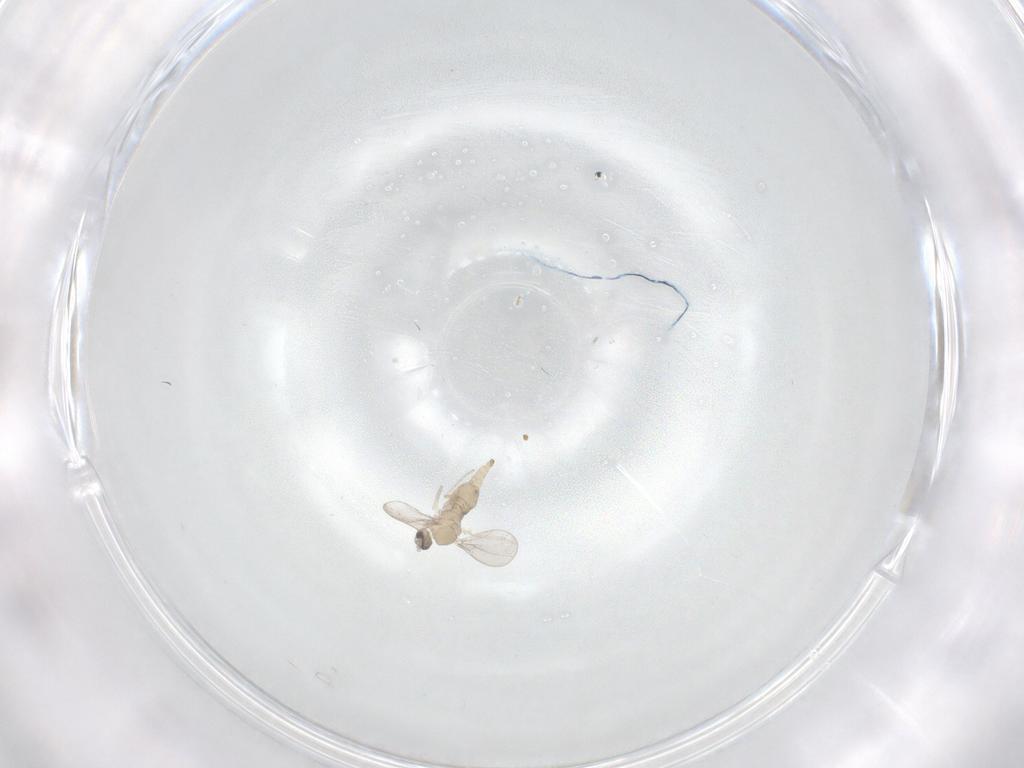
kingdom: Animalia
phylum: Arthropoda
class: Insecta
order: Diptera
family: Cecidomyiidae
